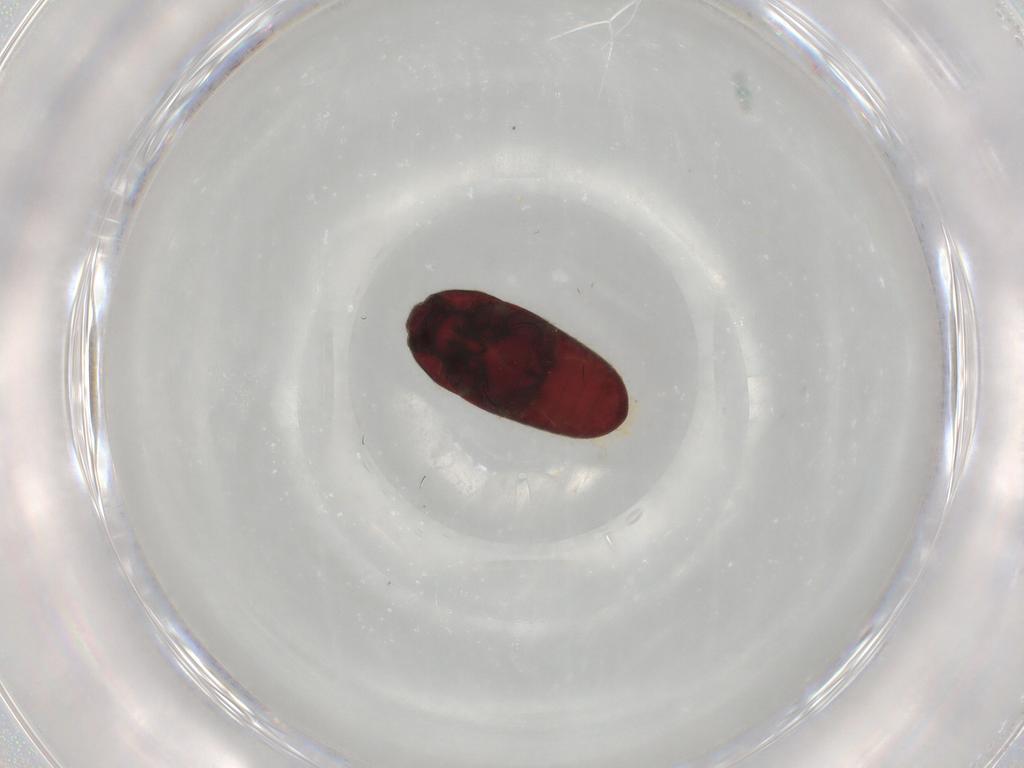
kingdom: Animalia
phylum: Arthropoda
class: Insecta
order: Coleoptera
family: Throscidae
